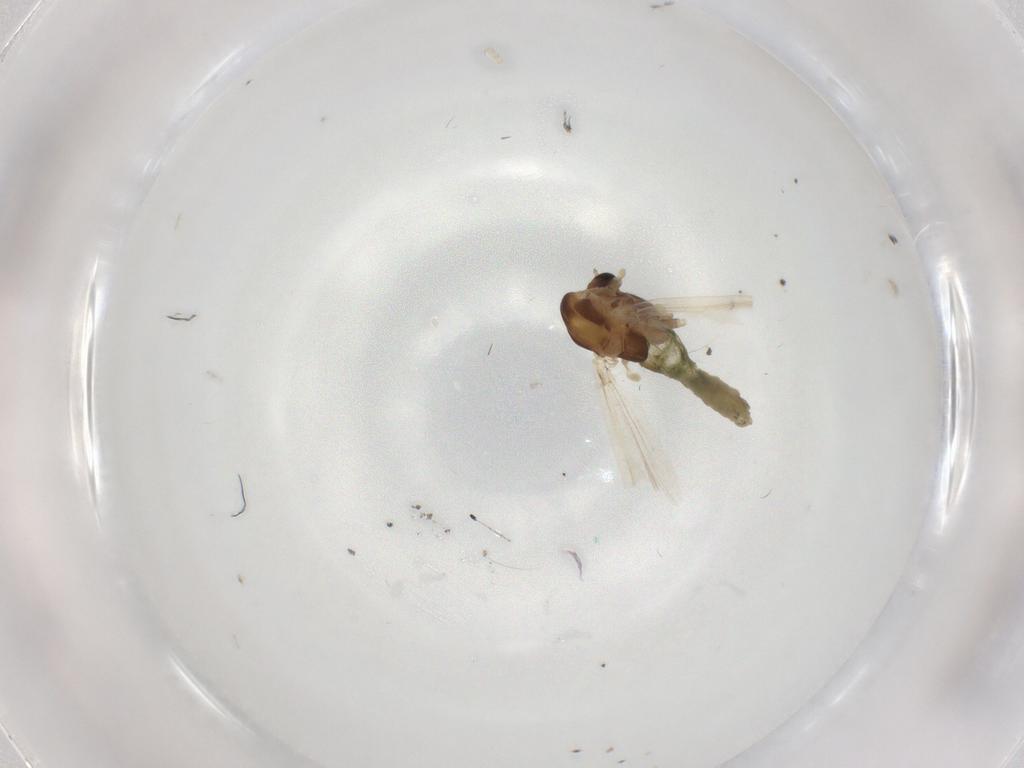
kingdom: Animalia
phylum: Arthropoda
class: Insecta
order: Diptera
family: Chironomidae
